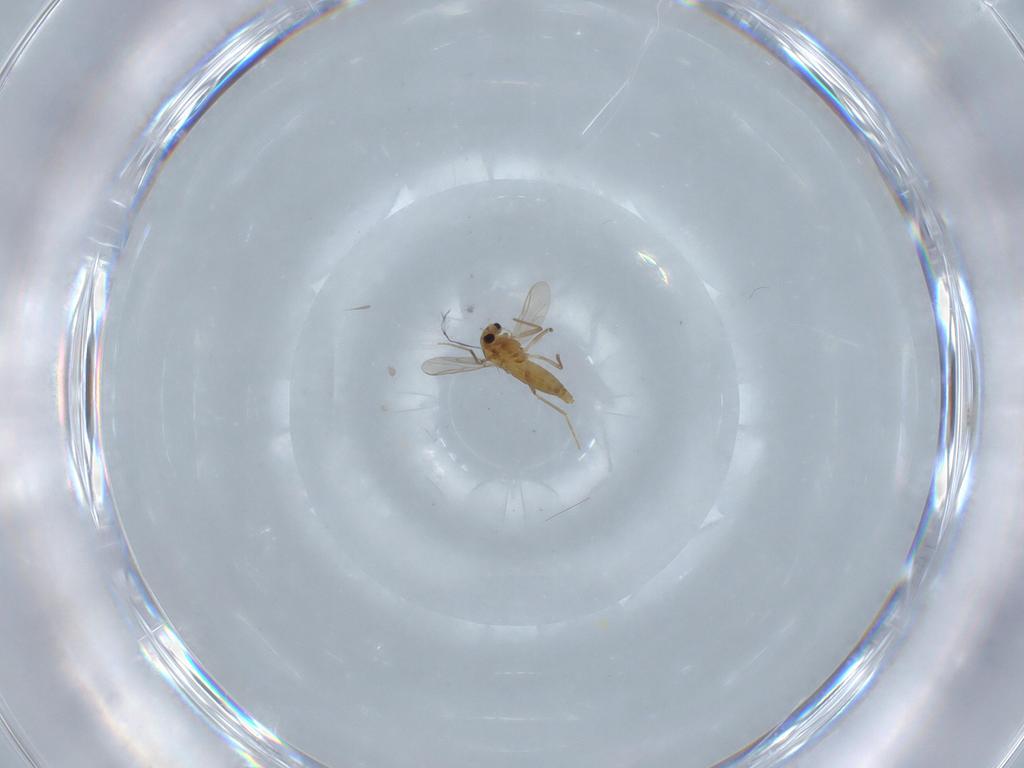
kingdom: Animalia
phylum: Arthropoda
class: Insecta
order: Diptera
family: Chironomidae
